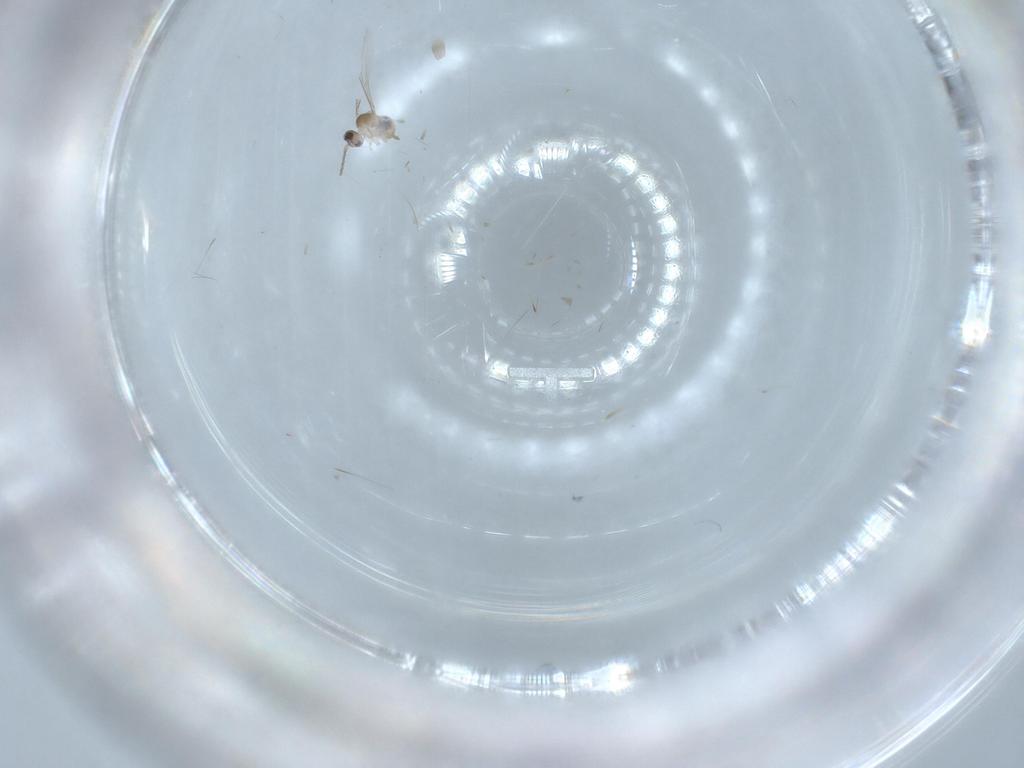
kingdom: Animalia
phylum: Arthropoda
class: Insecta
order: Diptera
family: Cecidomyiidae
